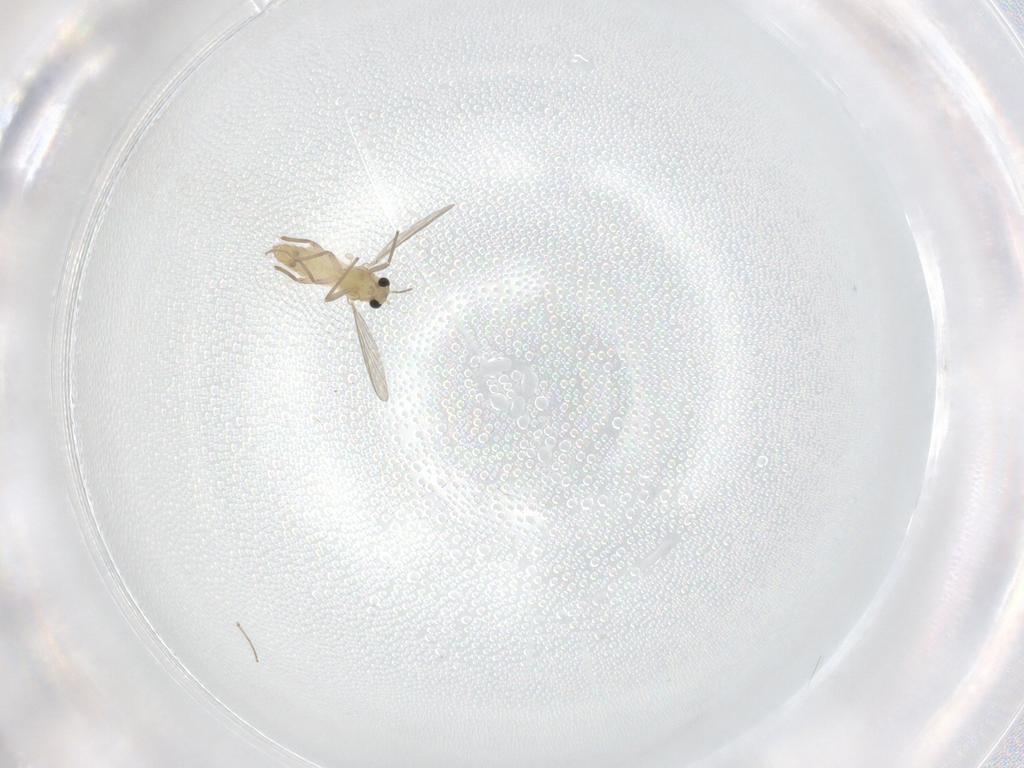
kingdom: Animalia
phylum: Arthropoda
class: Insecta
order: Diptera
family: Chironomidae
